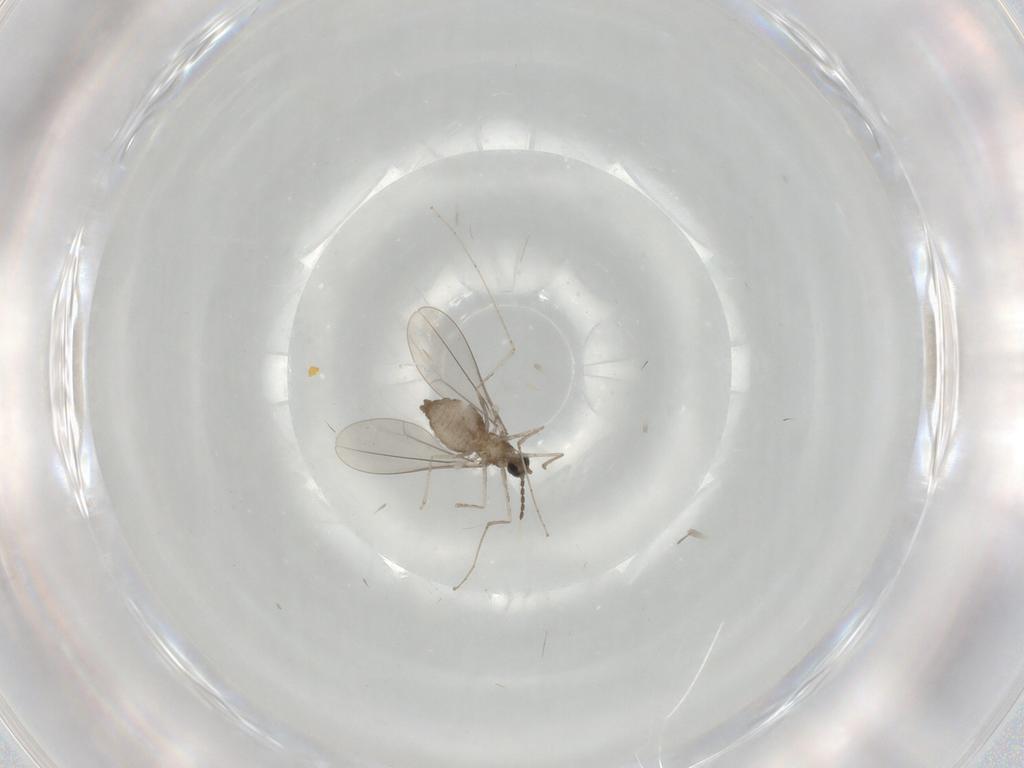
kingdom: Animalia
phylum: Arthropoda
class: Insecta
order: Diptera
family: Cecidomyiidae
